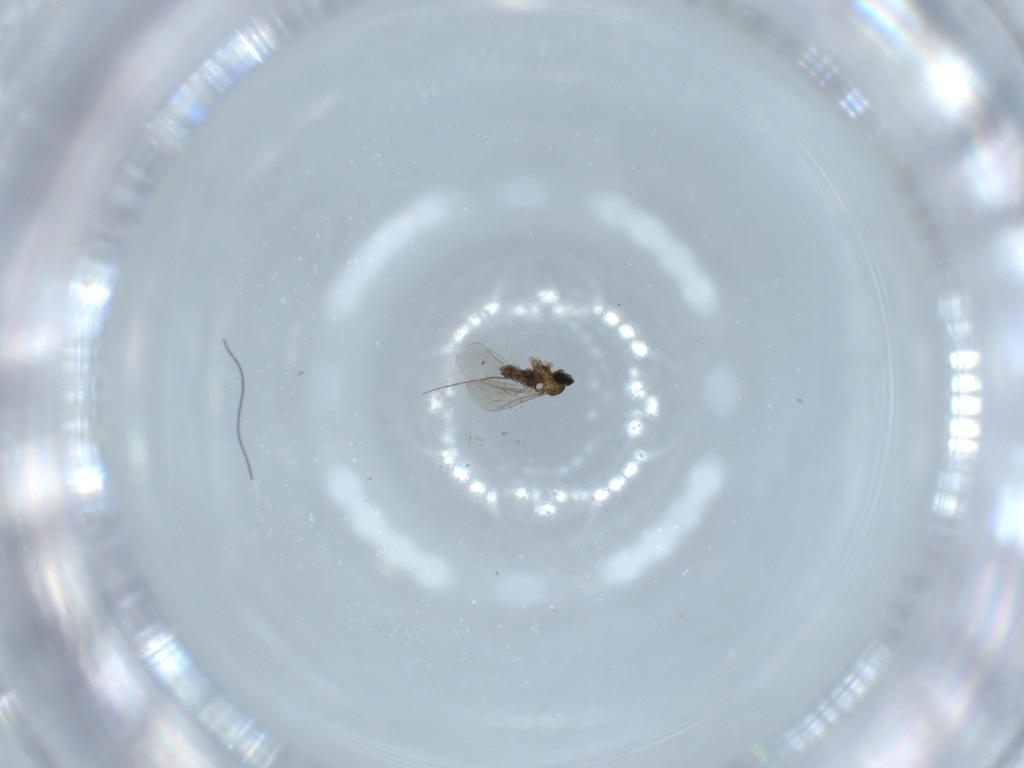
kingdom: Animalia
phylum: Arthropoda
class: Insecta
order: Diptera
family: Cecidomyiidae
